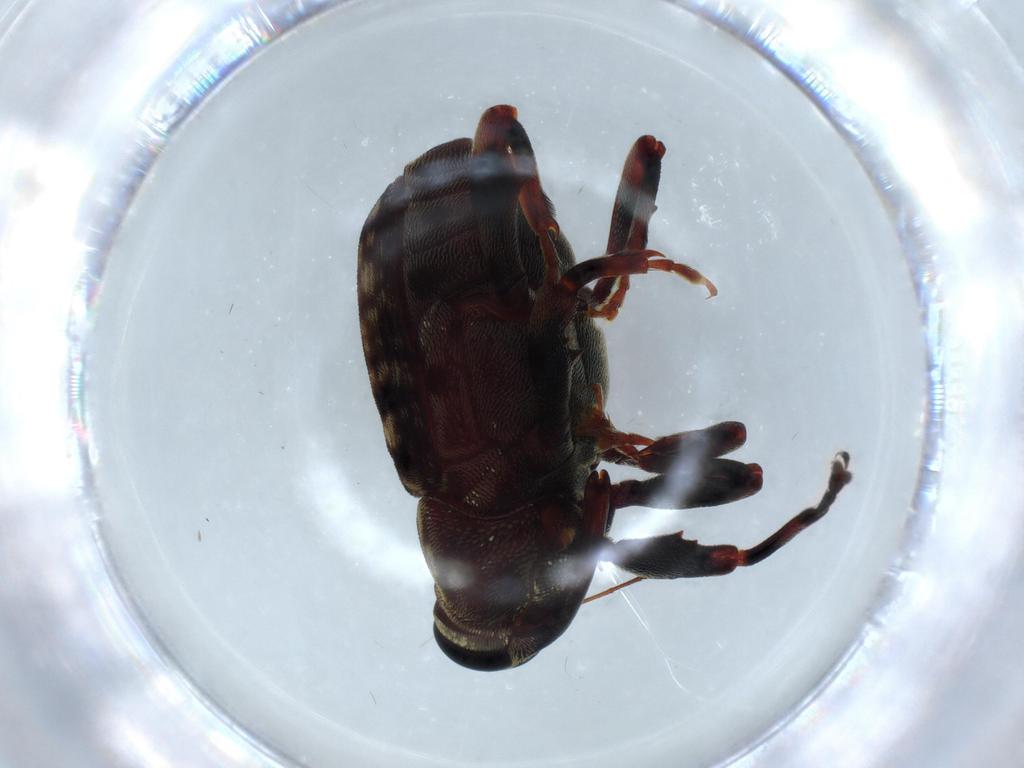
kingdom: Animalia
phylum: Arthropoda
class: Insecta
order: Coleoptera
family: Curculionidae
